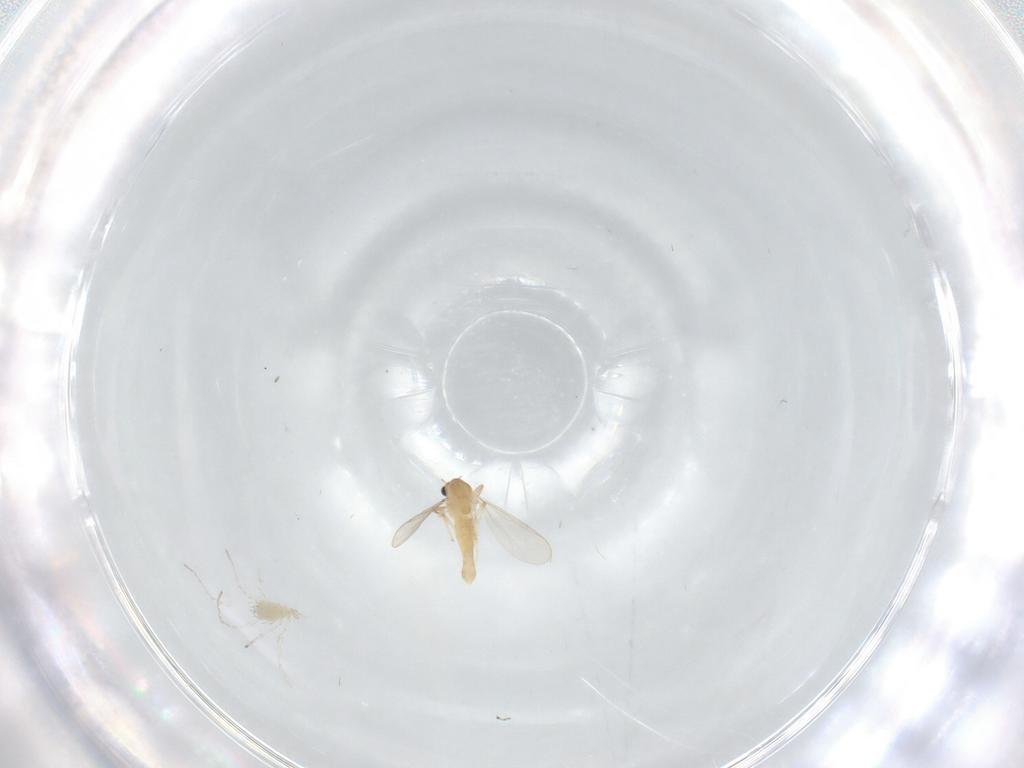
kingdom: Animalia
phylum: Arthropoda
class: Insecta
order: Diptera
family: Chironomidae
